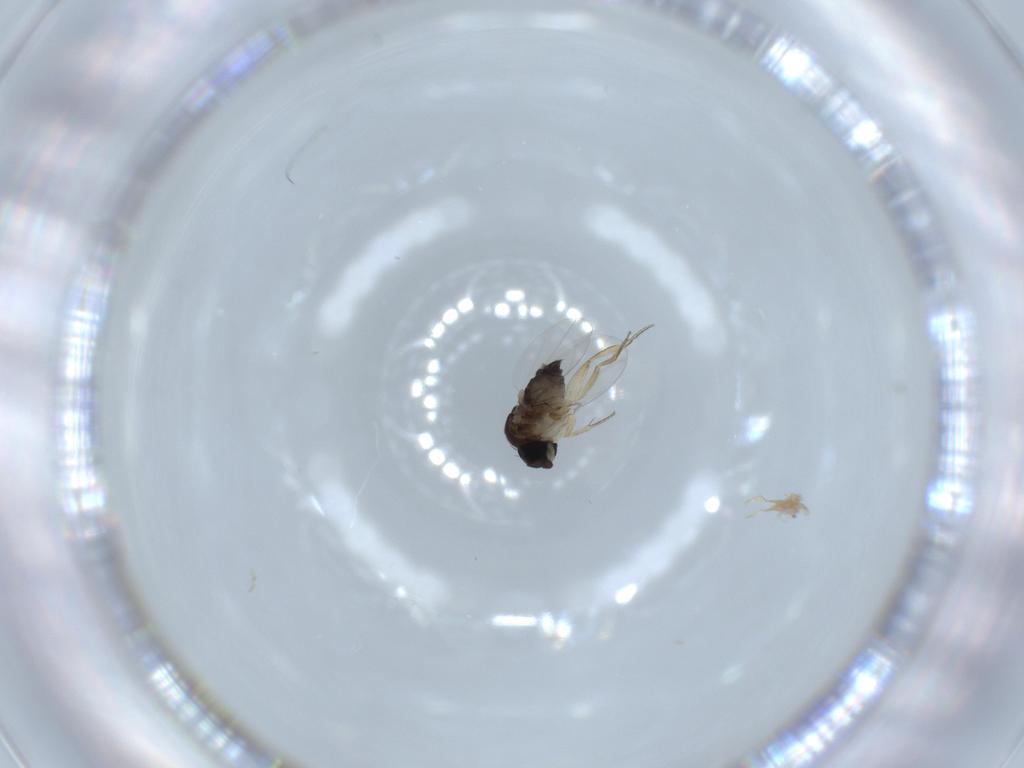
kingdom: Animalia
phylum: Arthropoda
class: Insecta
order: Diptera
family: Phoridae
